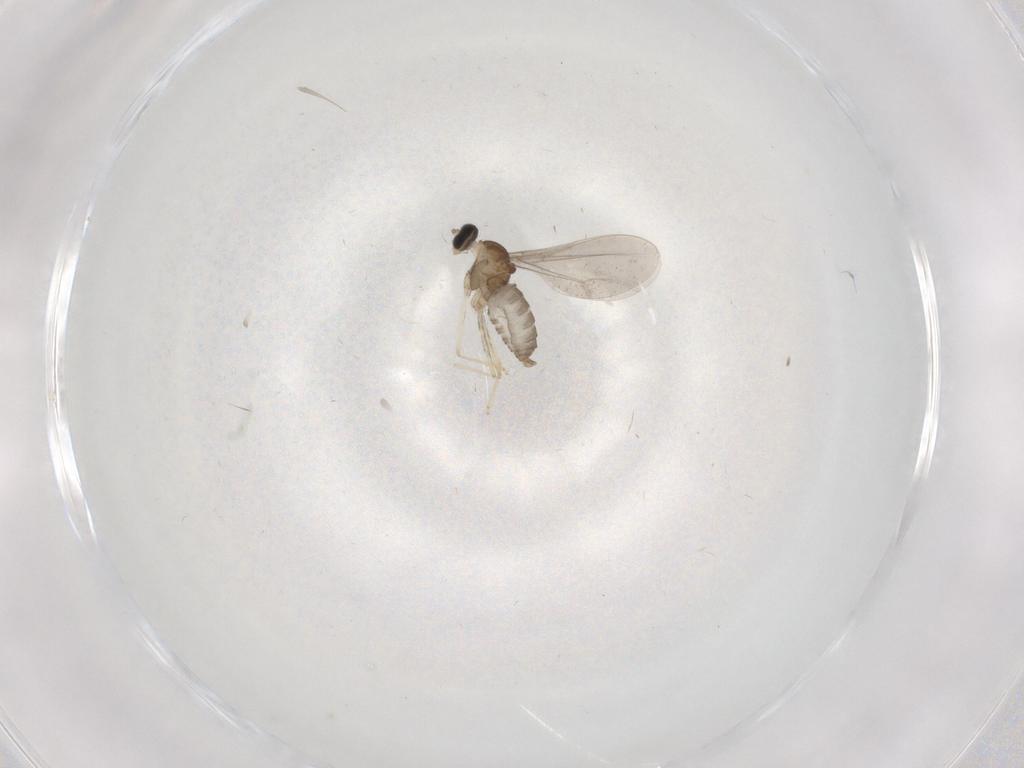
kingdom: Animalia
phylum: Arthropoda
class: Insecta
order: Diptera
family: Cecidomyiidae
